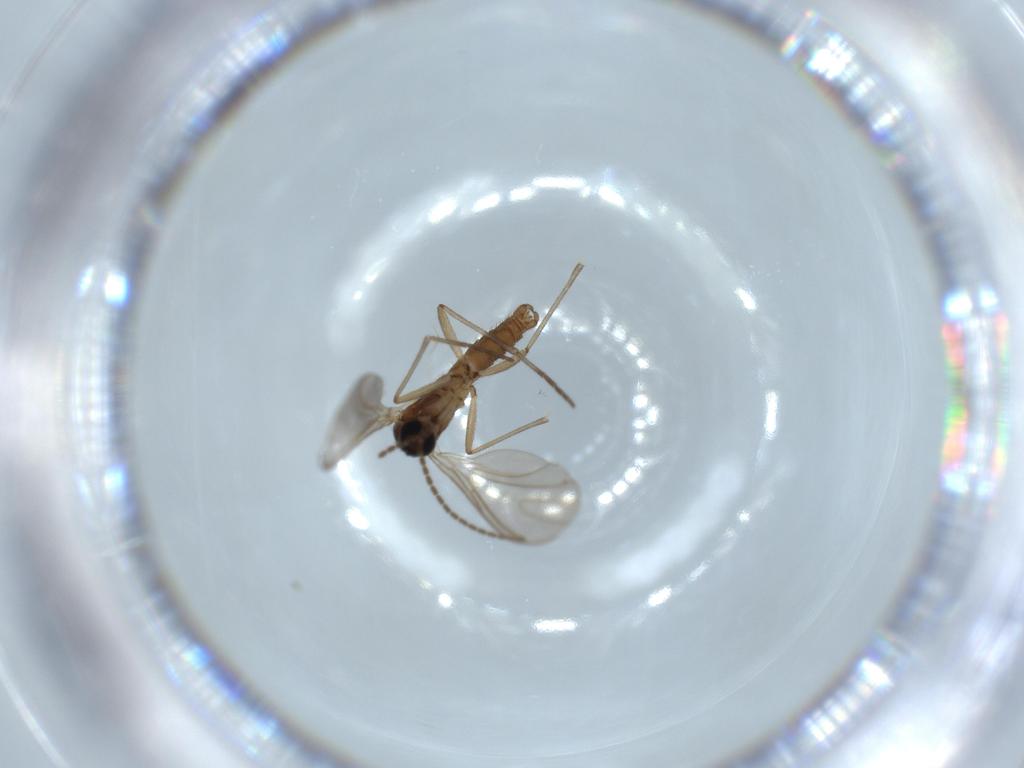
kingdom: Animalia
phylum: Arthropoda
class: Insecta
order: Diptera
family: Sciaridae
